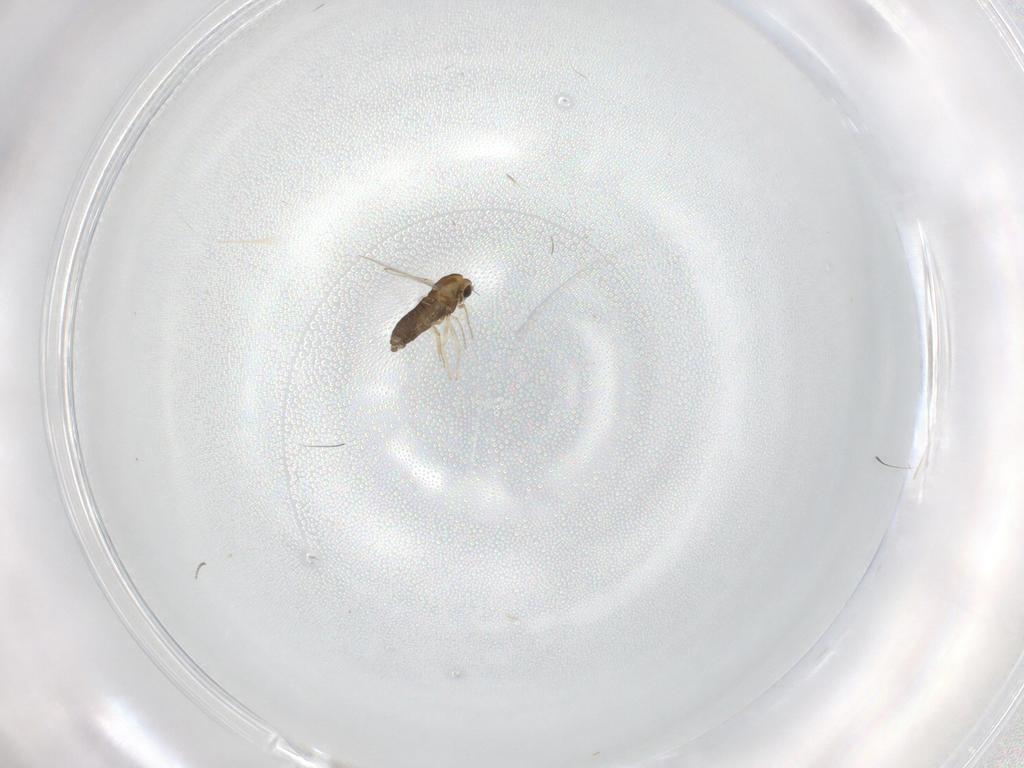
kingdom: Animalia
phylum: Arthropoda
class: Insecta
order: Diptera
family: Chironomidae
